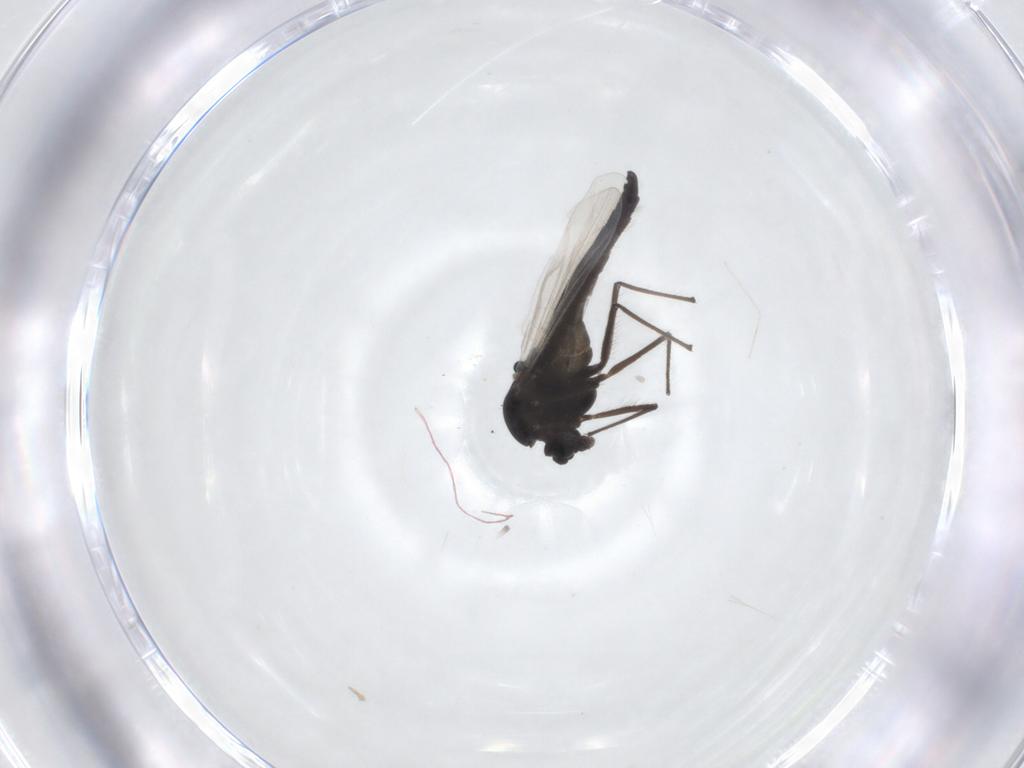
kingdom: Animalia
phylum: Arthropoda
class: Insecta
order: Diptera
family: Chironomidae
